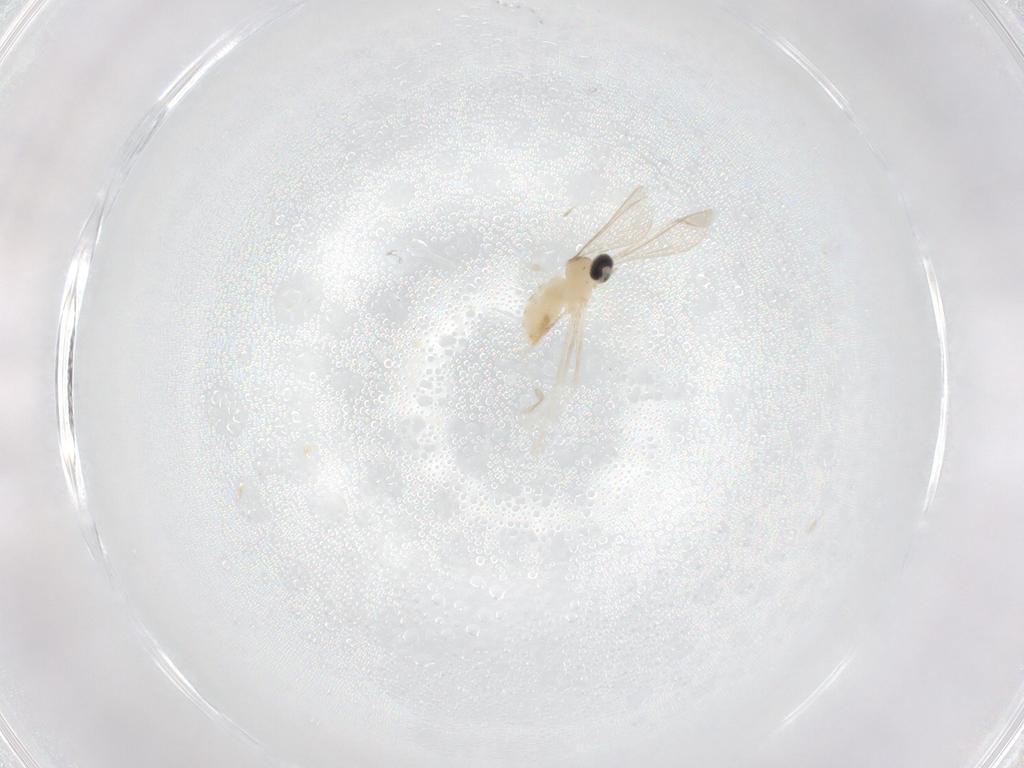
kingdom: Animalia
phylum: Arthropoda
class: Insecta
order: Diptera
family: Cecidomyiidae
